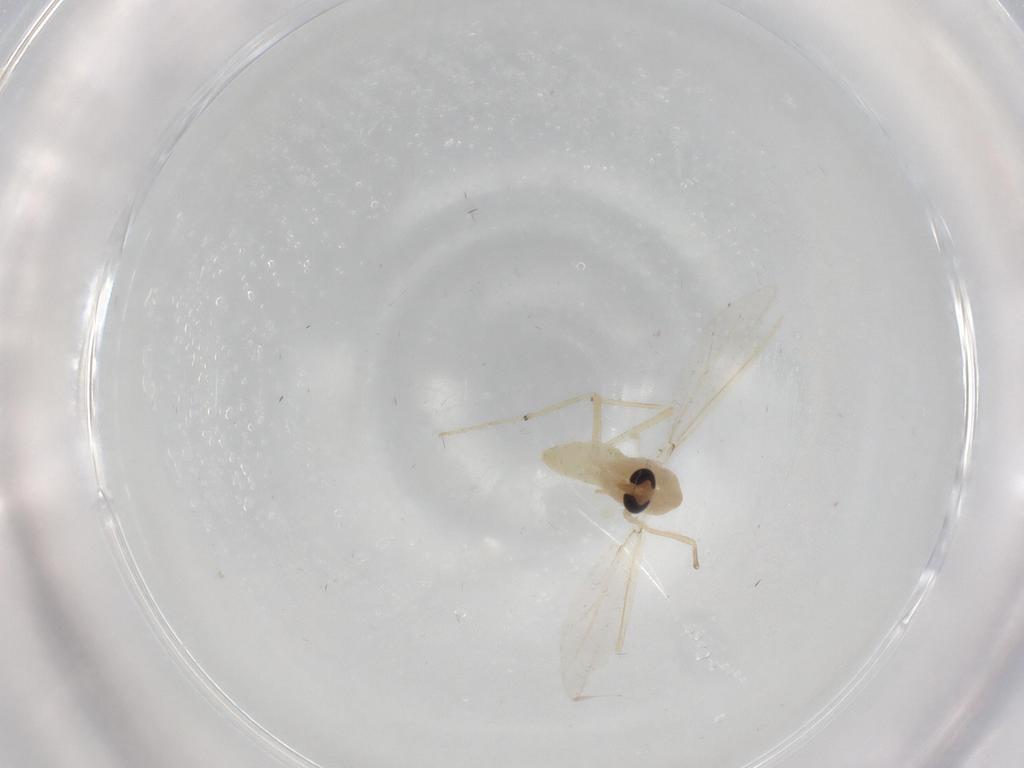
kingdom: Animalia
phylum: Arthropoda
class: Insecta
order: Diptera
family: Chironomidae
